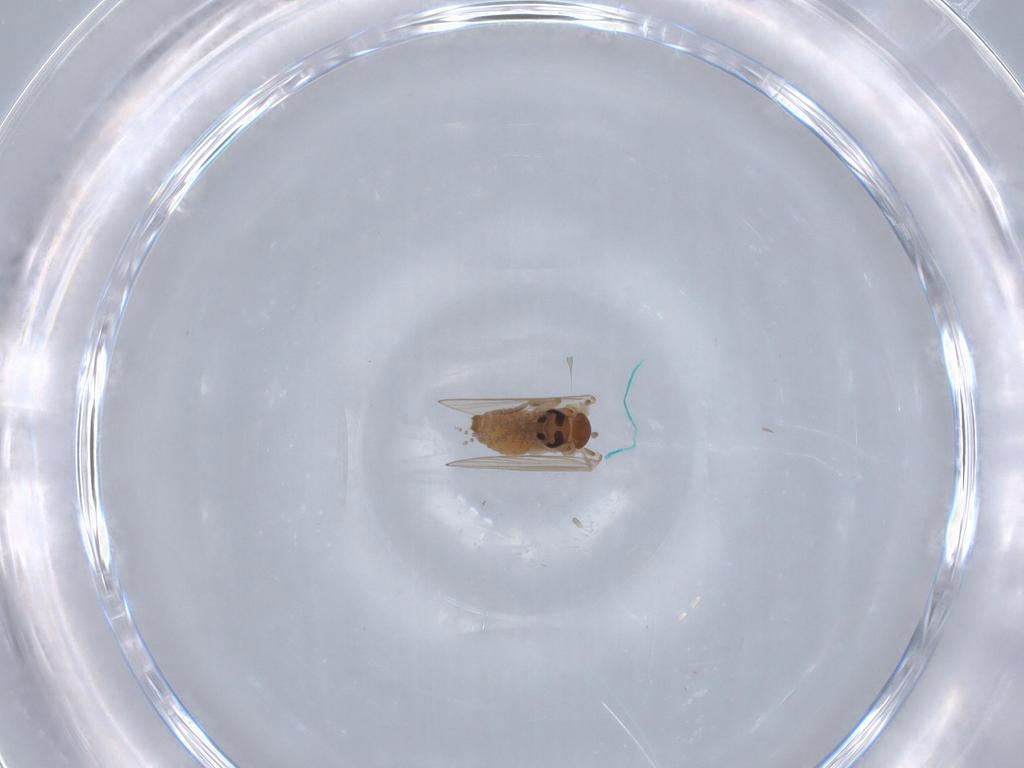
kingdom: Animalia
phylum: Arthropoda
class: Insecta
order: Diptera
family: Psychodidae
